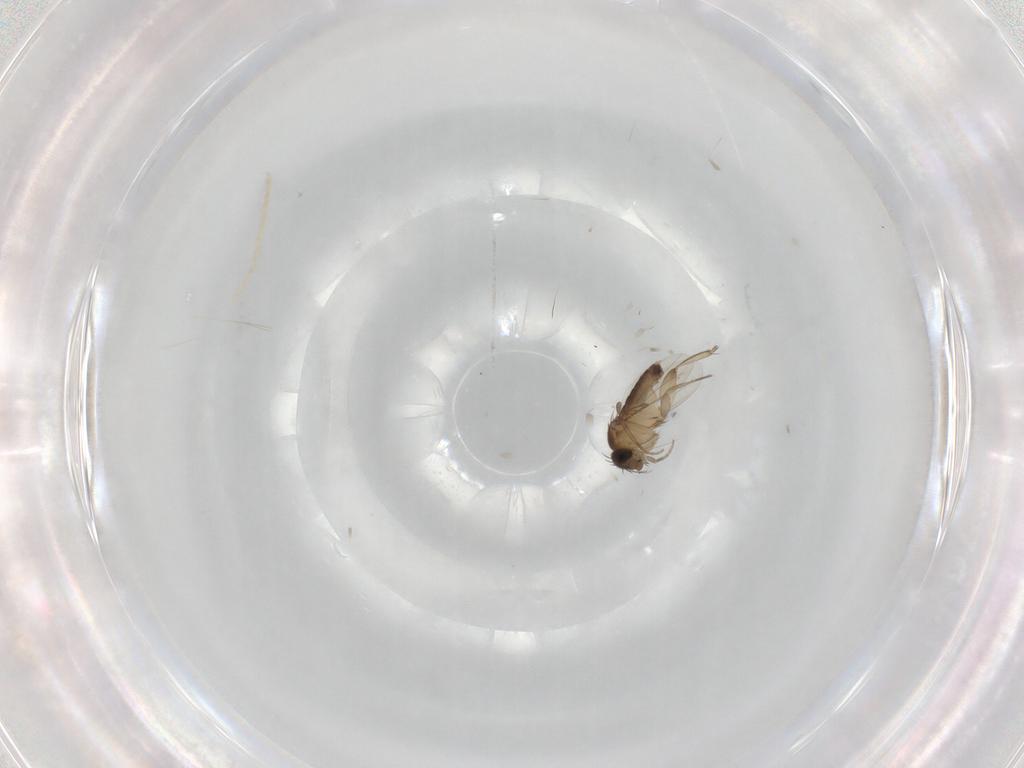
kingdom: Animalia
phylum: Arthropoda
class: Insecta
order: Diptera
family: Phoridae
